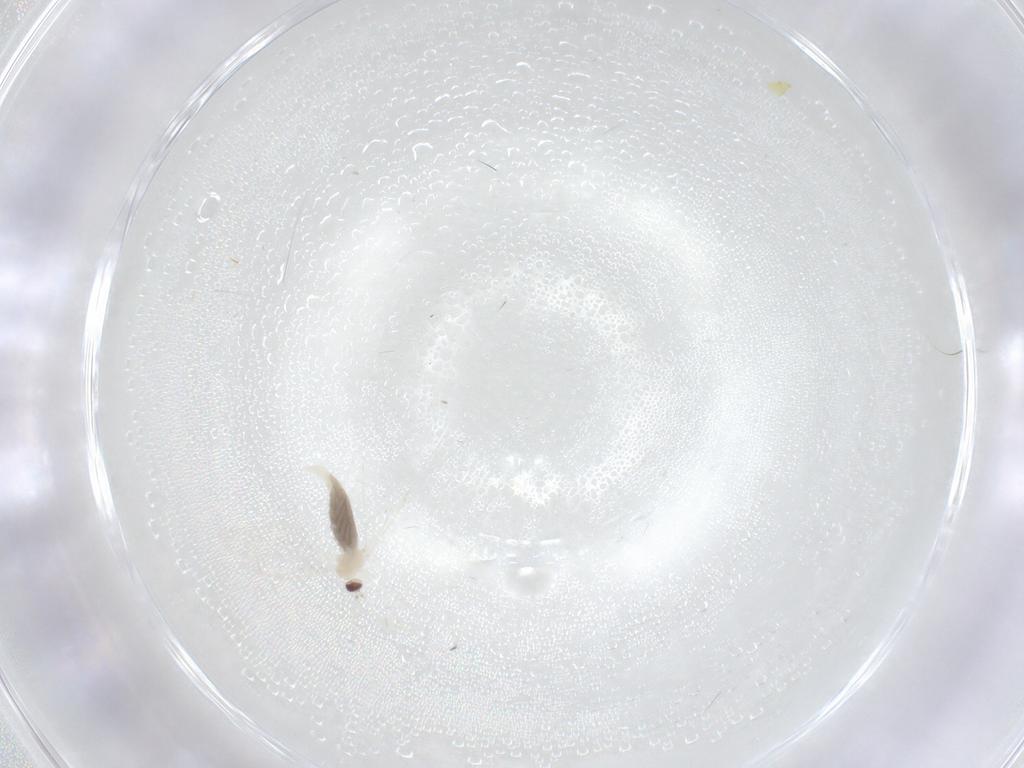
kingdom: Animalia
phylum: Arthropoda
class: Insecta
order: Diptera
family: Cecidomyiidae
